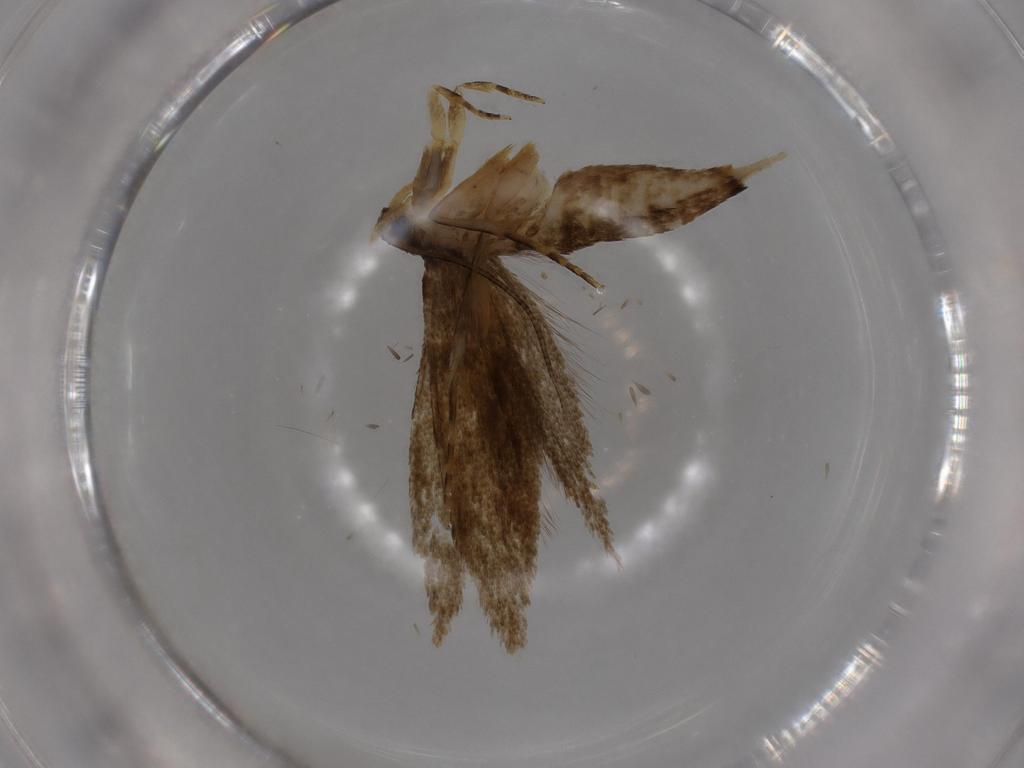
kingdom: Animalia
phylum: Arthropoda
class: Insecta
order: Lepidoptera
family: Tineidae
